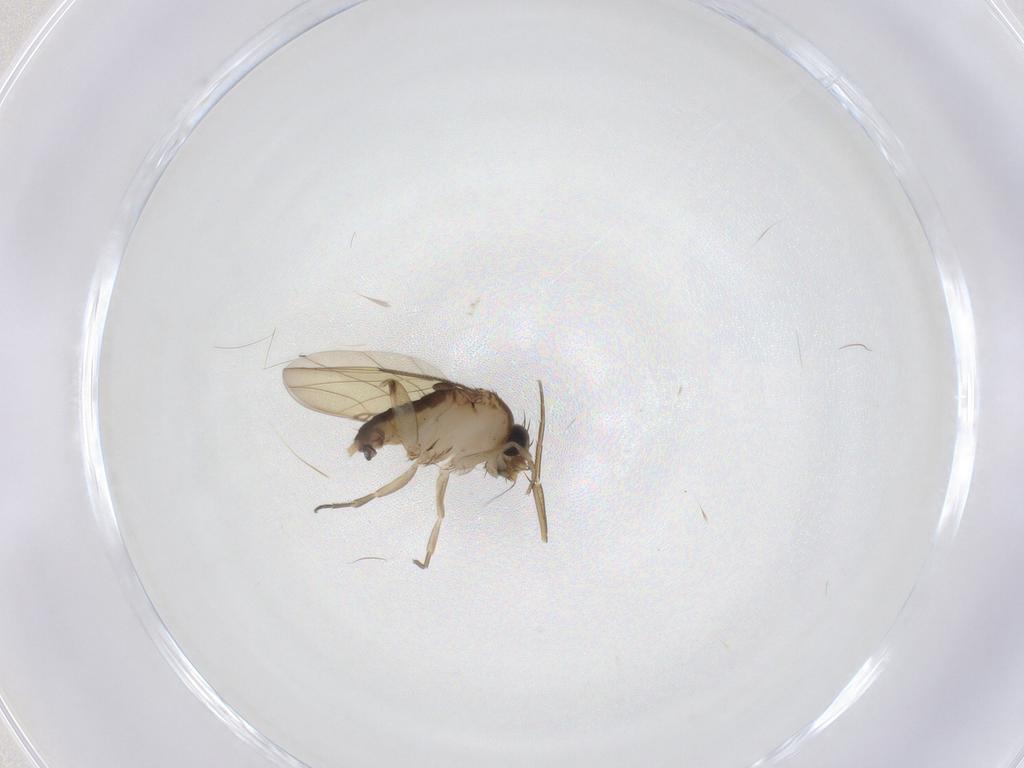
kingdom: Animalia
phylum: Arthropoda
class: Insecta
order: Diptera
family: Phoridae
